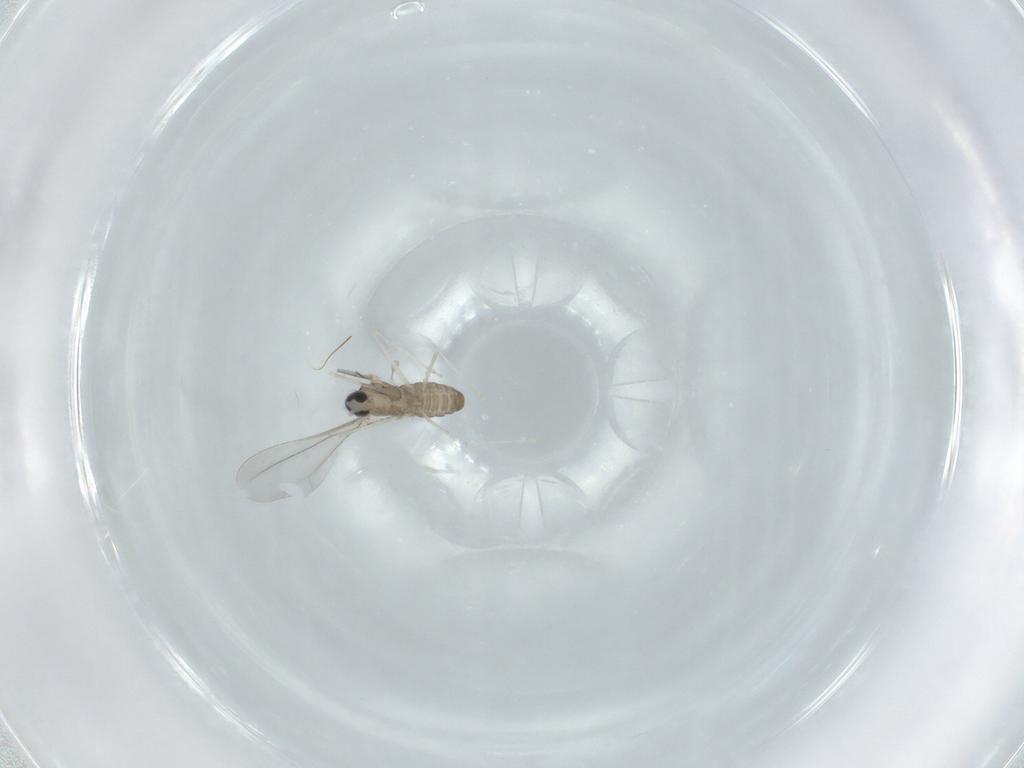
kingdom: Animalia
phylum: Arthropoda
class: Insecta
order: Diptera
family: Cecidomyiidae
